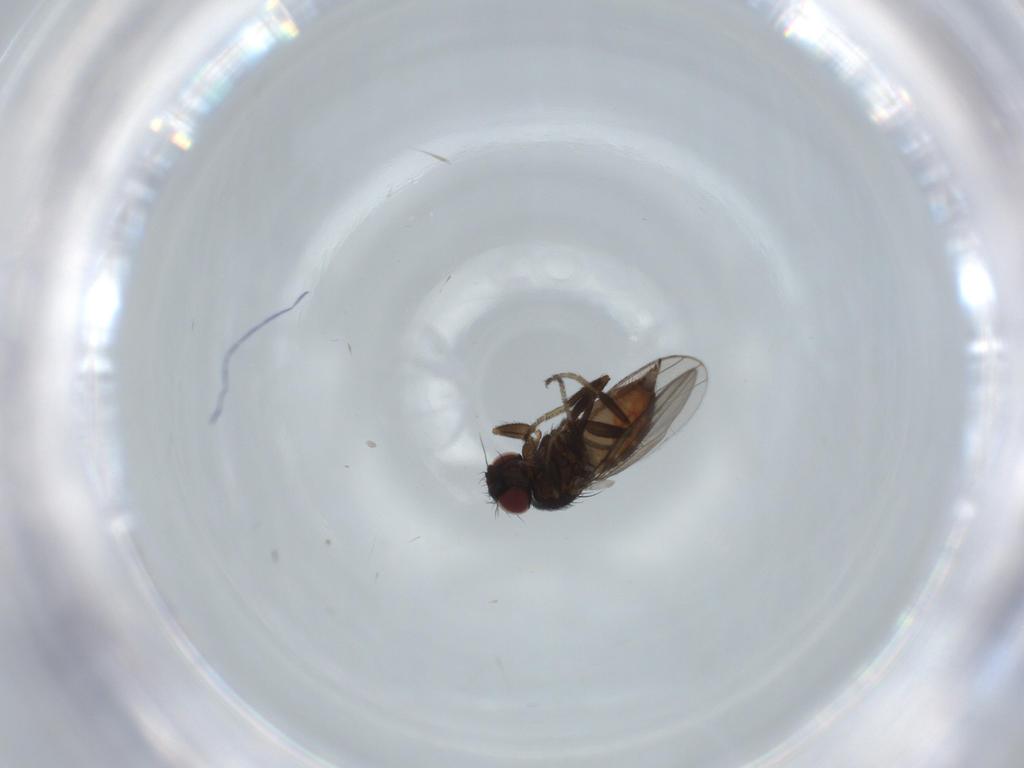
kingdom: Animalia
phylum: Arthropoda
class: Insecta
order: Diptera
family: Milichiidae
